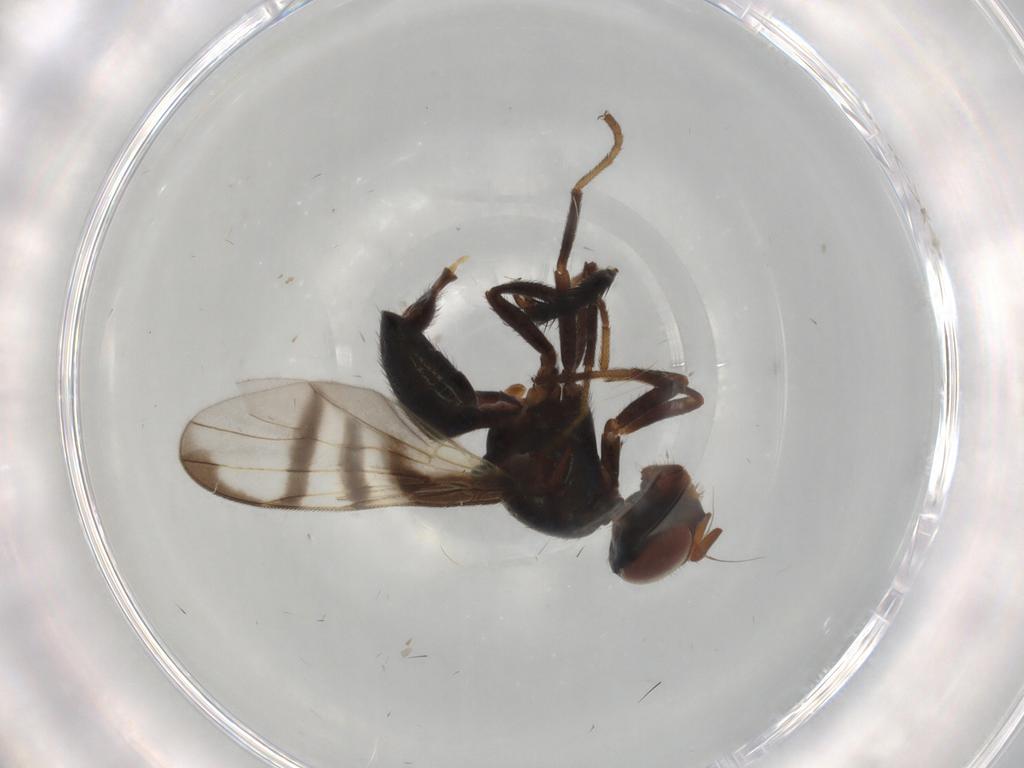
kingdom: Animalia
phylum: Arthropoda
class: Insecta
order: Diptera
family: Platystomatidae
